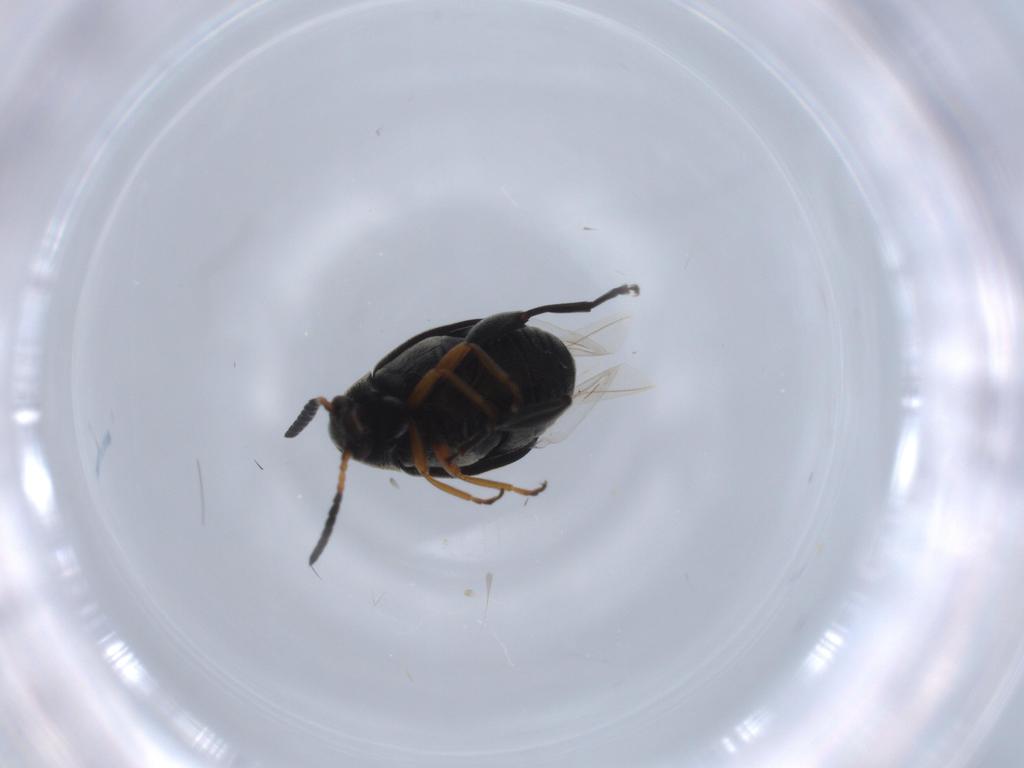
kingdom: Animalia
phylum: Arthropoda
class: Insecta
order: Coleoptera
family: Chrysomelidae
